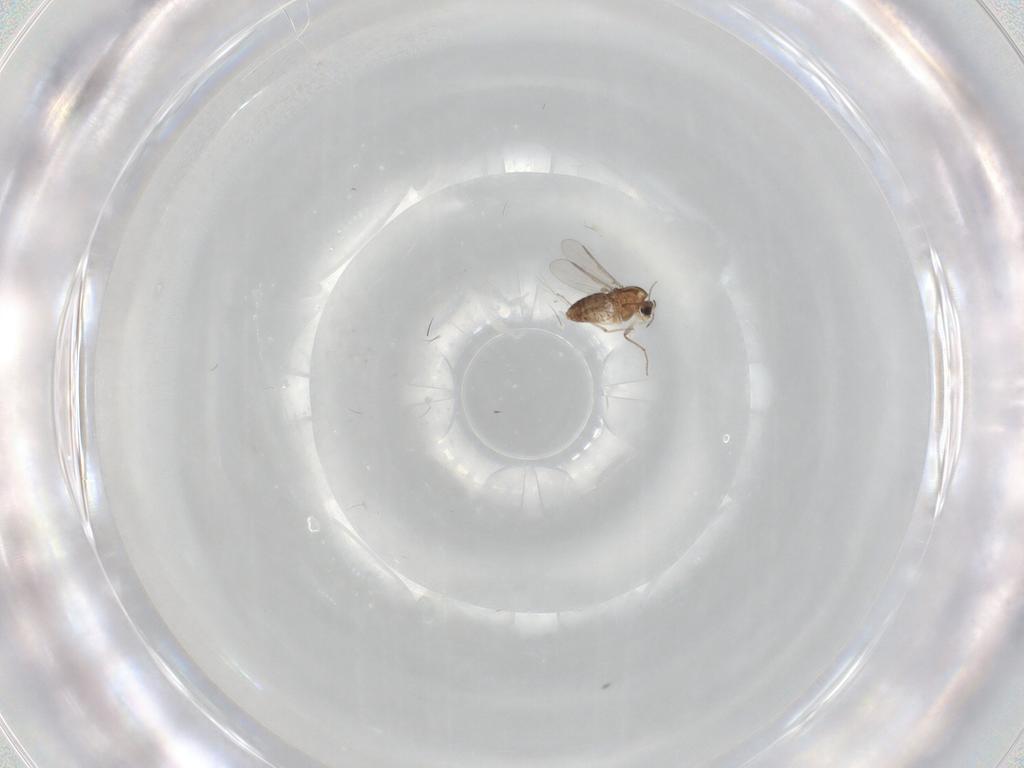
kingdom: Animalia
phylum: Arthropoda
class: Insecta
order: Diptera
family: Chironomidae
